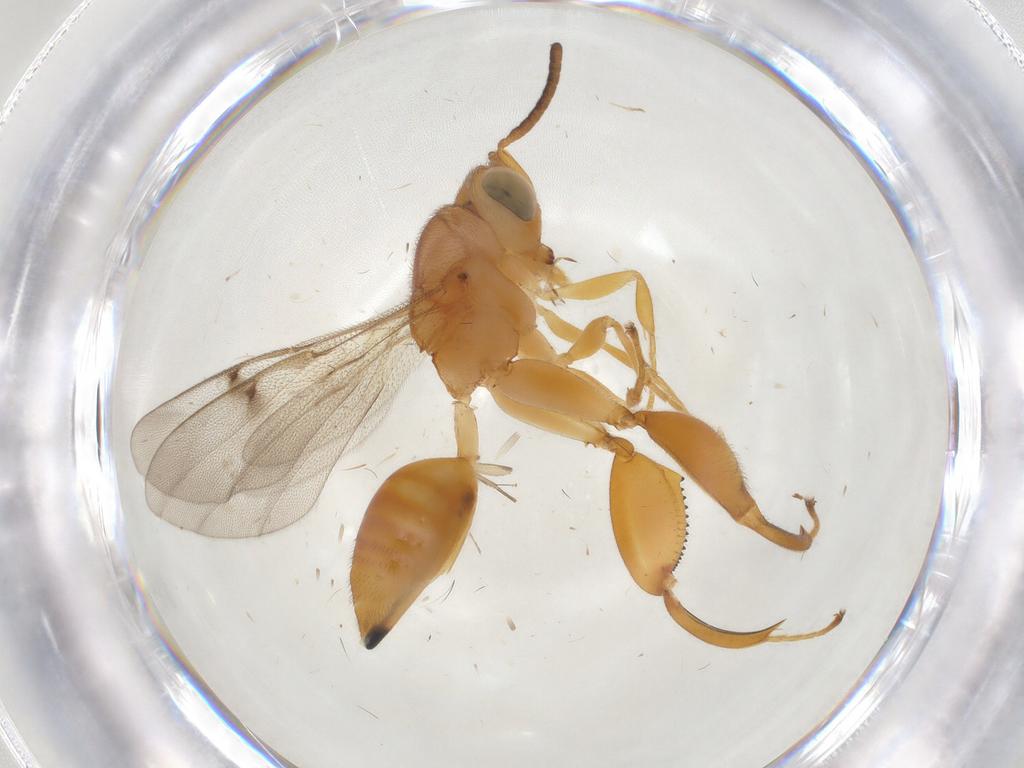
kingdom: Animalia
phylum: Arthropoda
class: Insecta
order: Hymenoptera
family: Chalcididae
